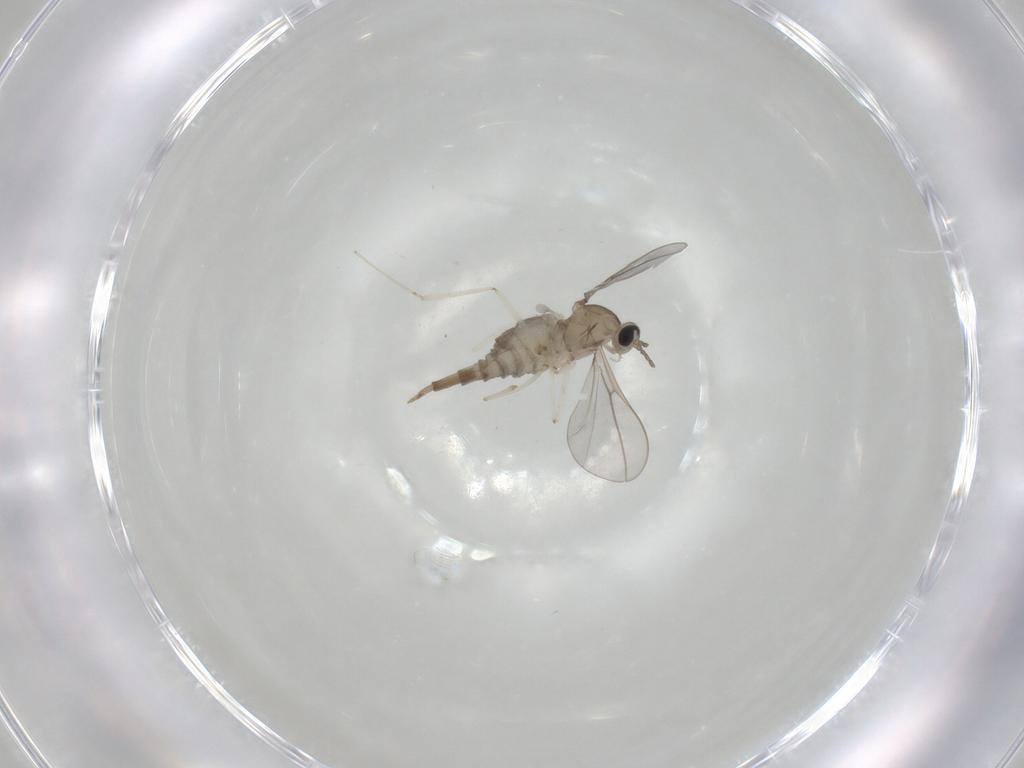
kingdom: Animalia
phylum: Arthropoda
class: Insecta
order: Diptera
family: Cecidomyiidae
